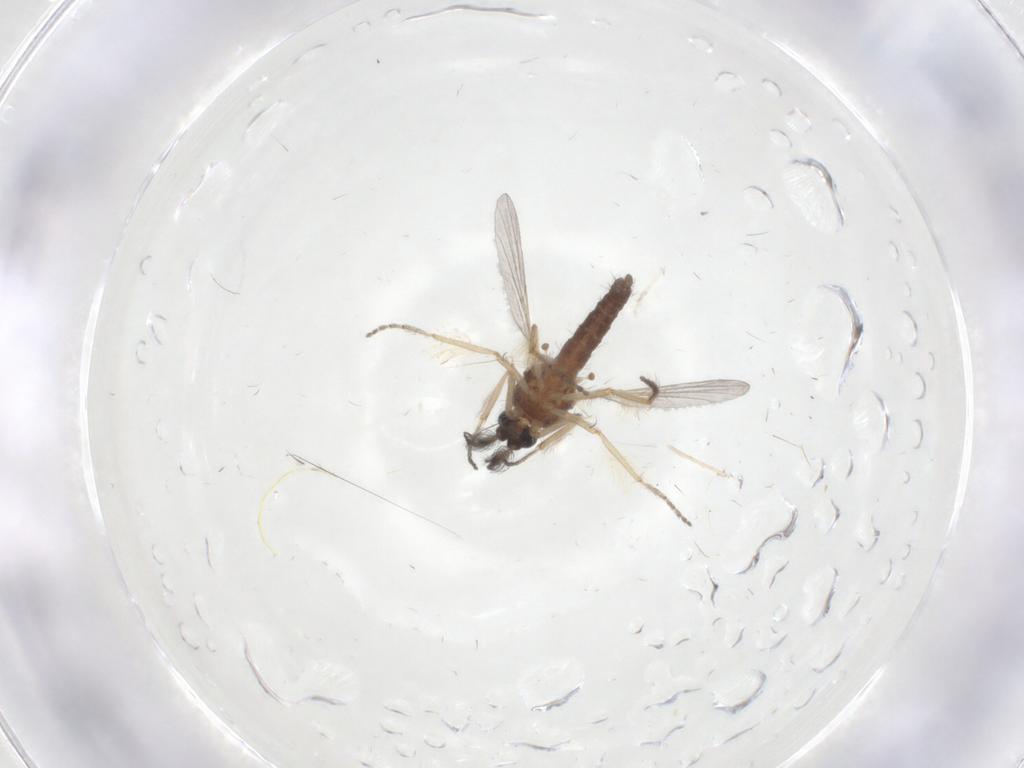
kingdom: Animalia
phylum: Arthropoda
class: Insecta
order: Diptera
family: Ceratopogonidae
